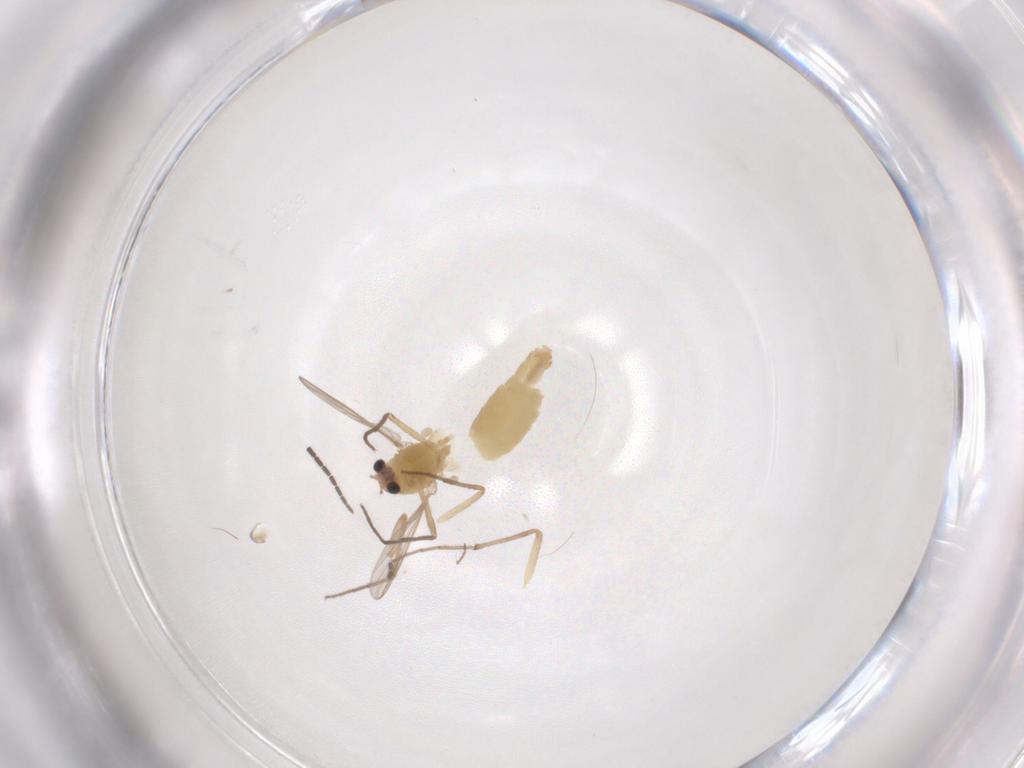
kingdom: Animalia
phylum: Arthropoda
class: Insecta
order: Diptera
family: Chironomidae
